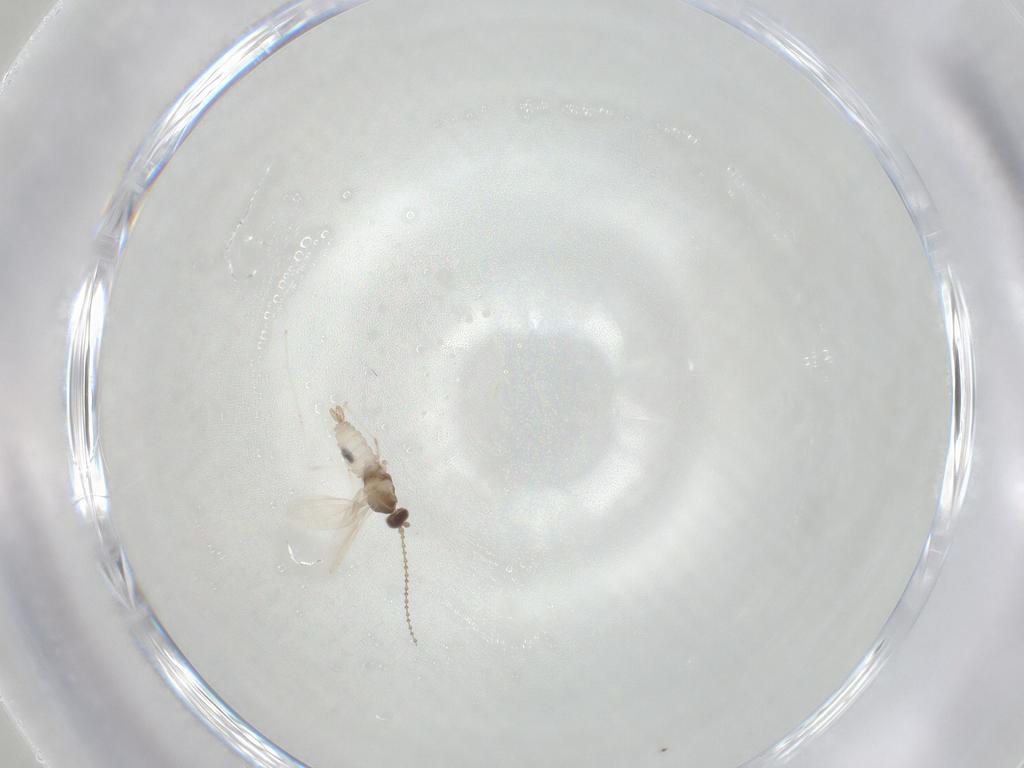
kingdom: Animalia
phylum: Arthropoda
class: Insecta
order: Diptera
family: Cecidomyiidae
